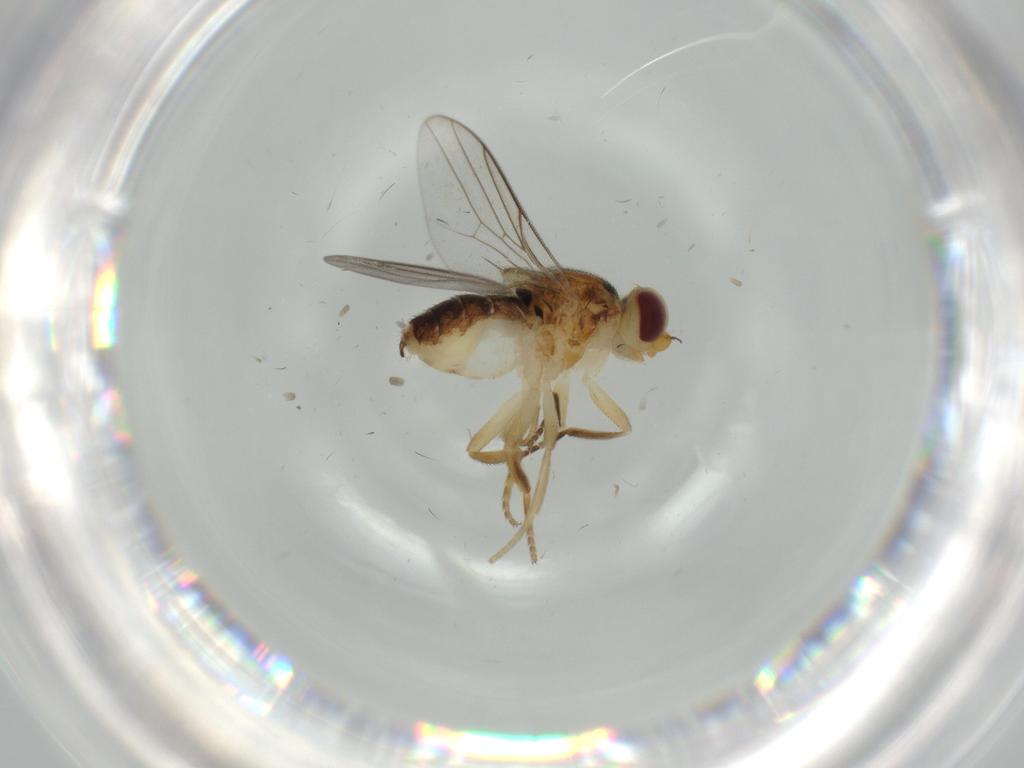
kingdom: Animalia
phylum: Arthropoda
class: Insecta
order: Diptera
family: Chloropidae
